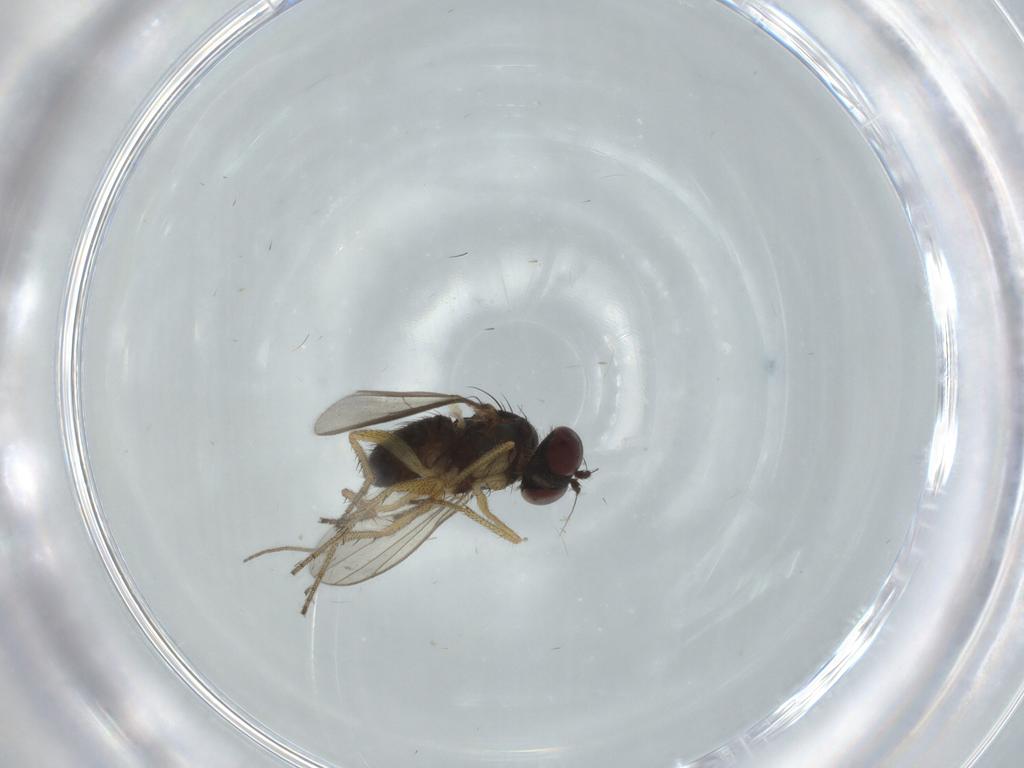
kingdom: Animalia
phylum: Arthropoda
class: Insecta
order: Diptera
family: Dolichopodidae
